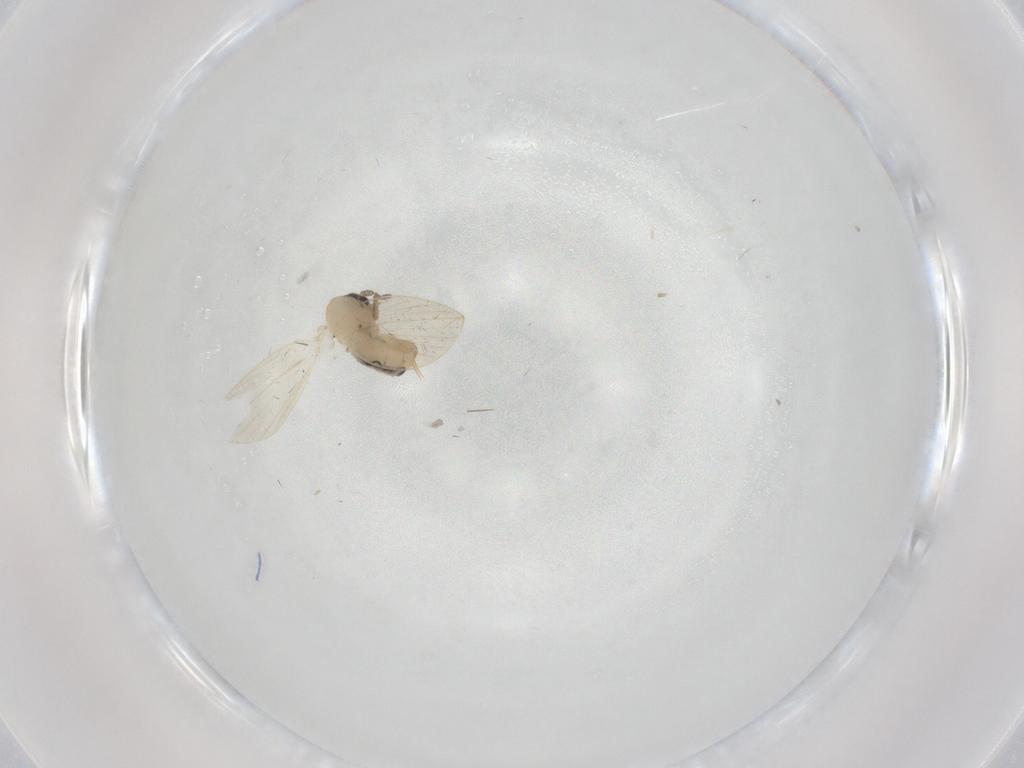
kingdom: Animalia
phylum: Arthropoda
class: Insecta
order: Diptera
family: Psychodidae
